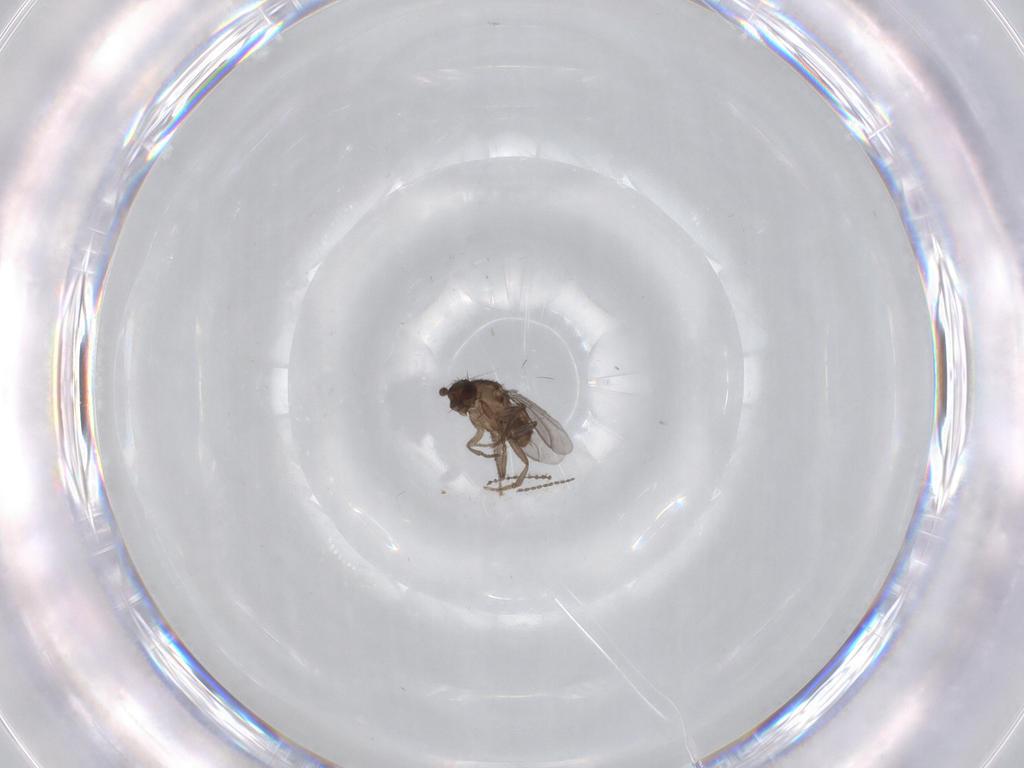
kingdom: Animalia
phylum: Arthropoda
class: Insecta
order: Diptera
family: Cecidomyiidae
